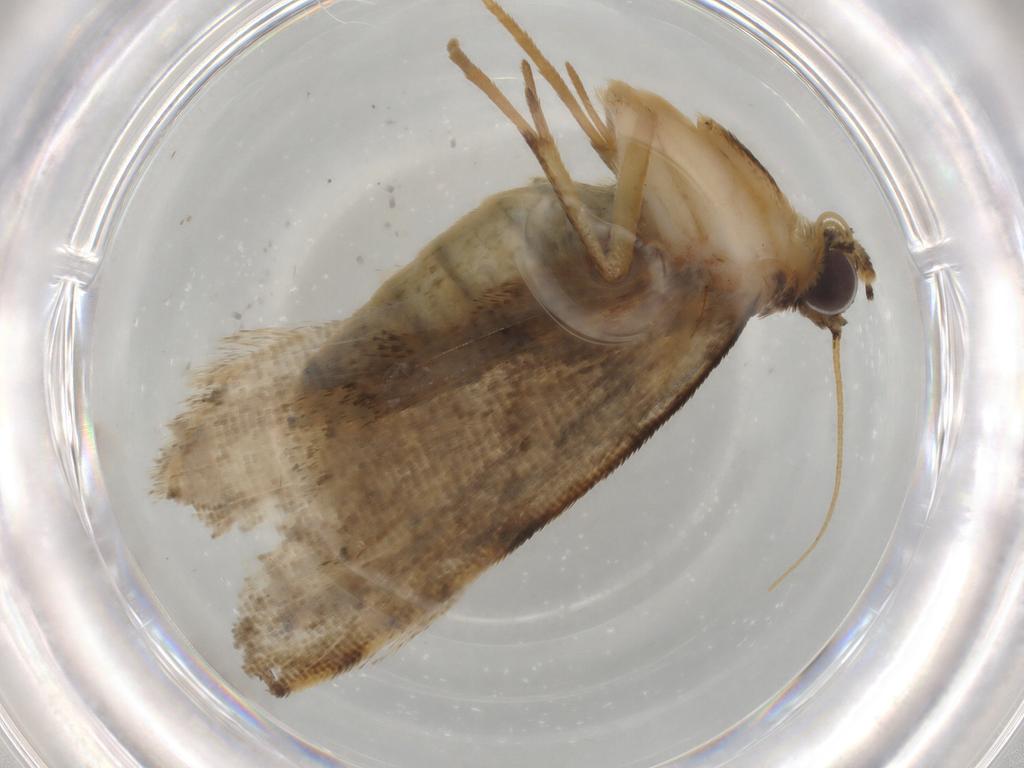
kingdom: Animalia
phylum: Arthropoda
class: Insecta
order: Lepidoptera
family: Erebidae
